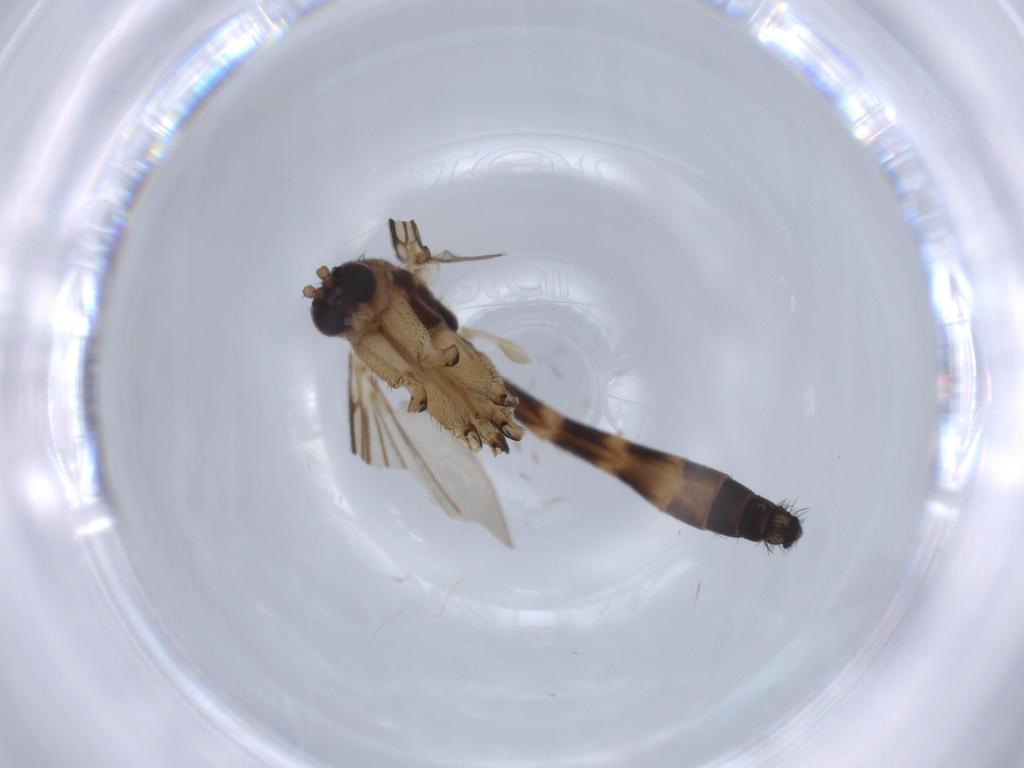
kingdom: Animalia
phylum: Arthropoda
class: Insecta
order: Diptera
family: Chironomidae
